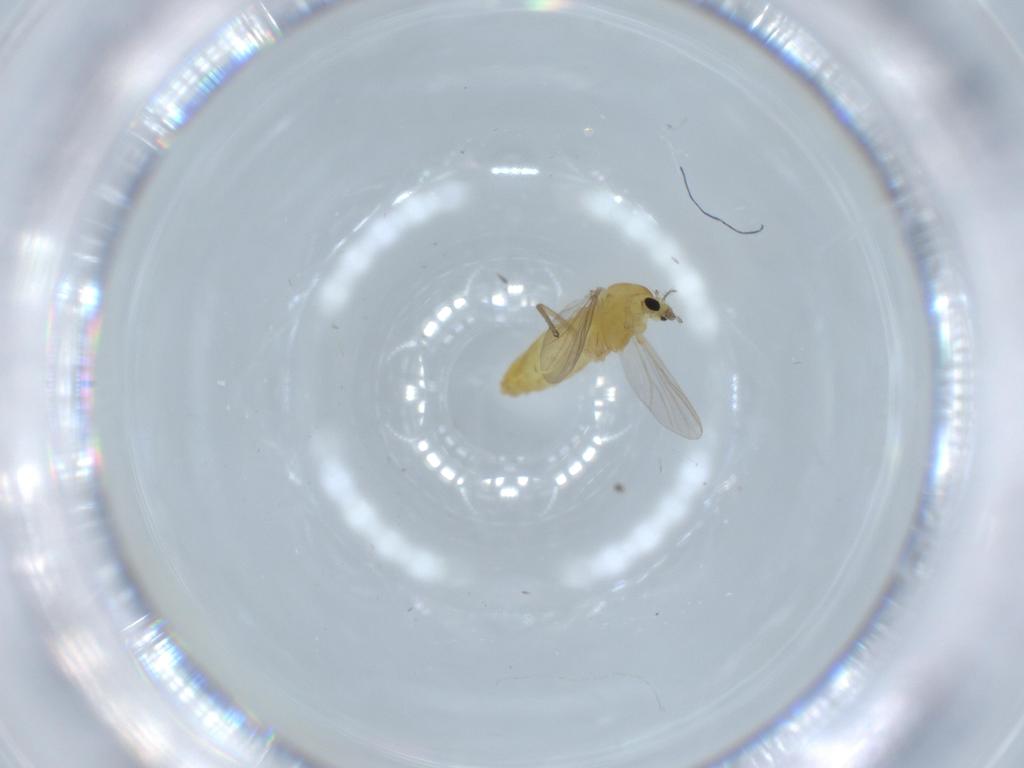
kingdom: Animalia
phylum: Arthropoda
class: Insecta
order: Diptera
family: Chironomidae
